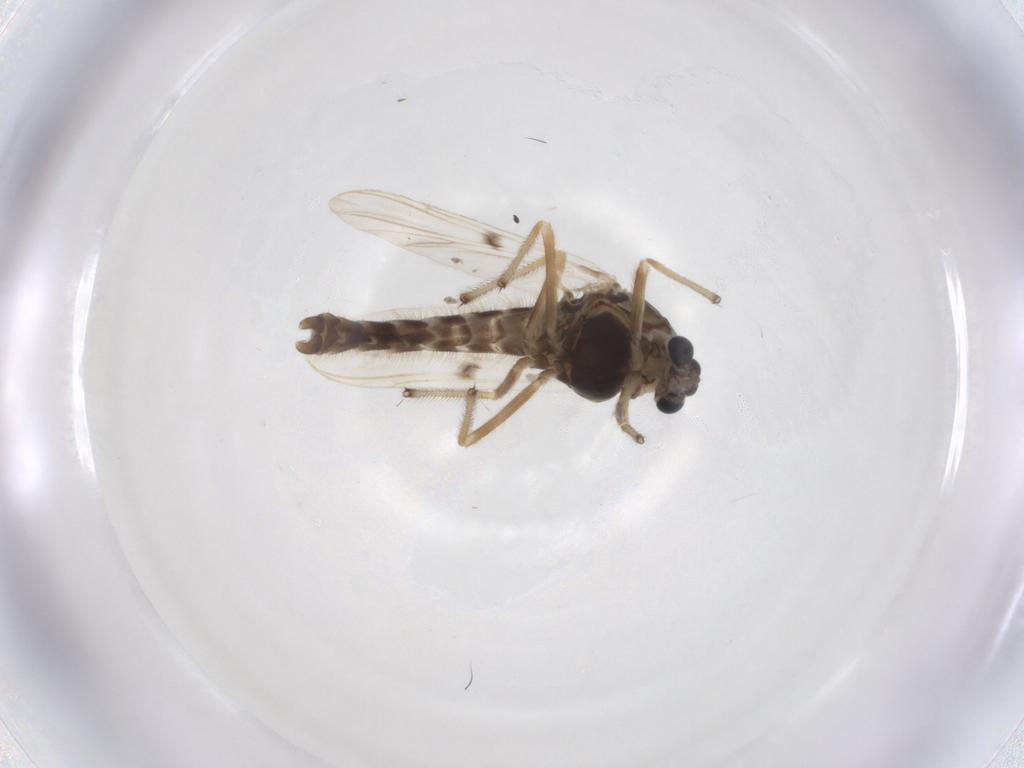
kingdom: Animalia
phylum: Arthropoda
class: Insecta
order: Diptera
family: Chironomidae
